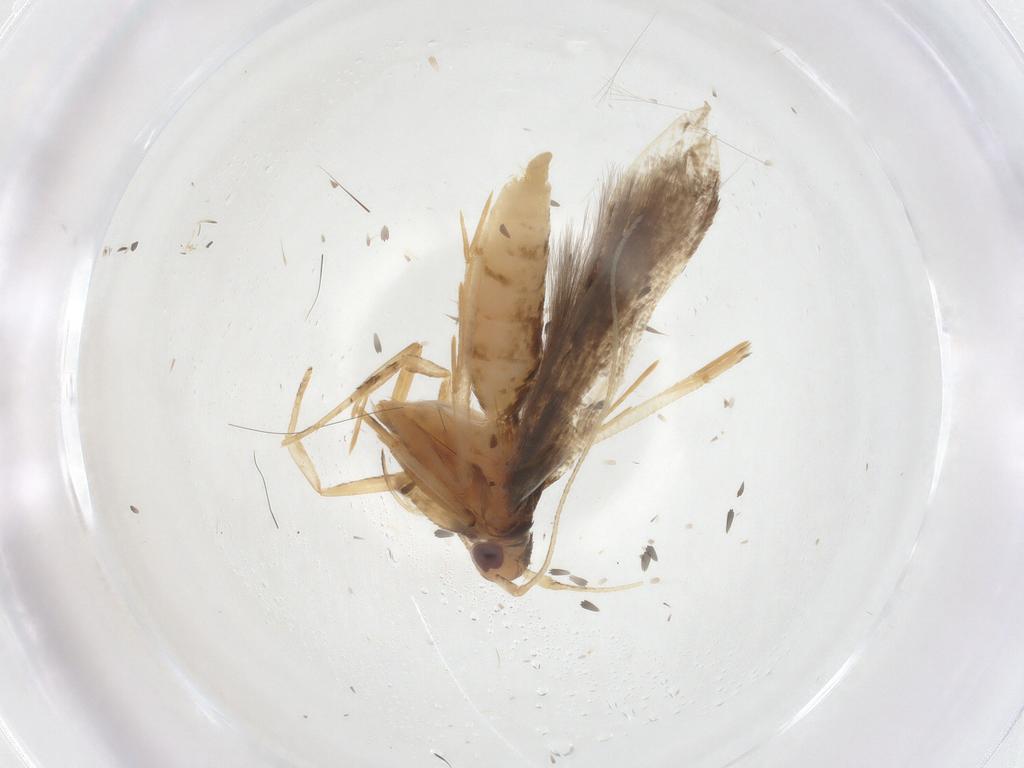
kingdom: Animalia
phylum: Arthropoda
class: Insecta
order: Lepidoptera
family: Cosmopterigidae
